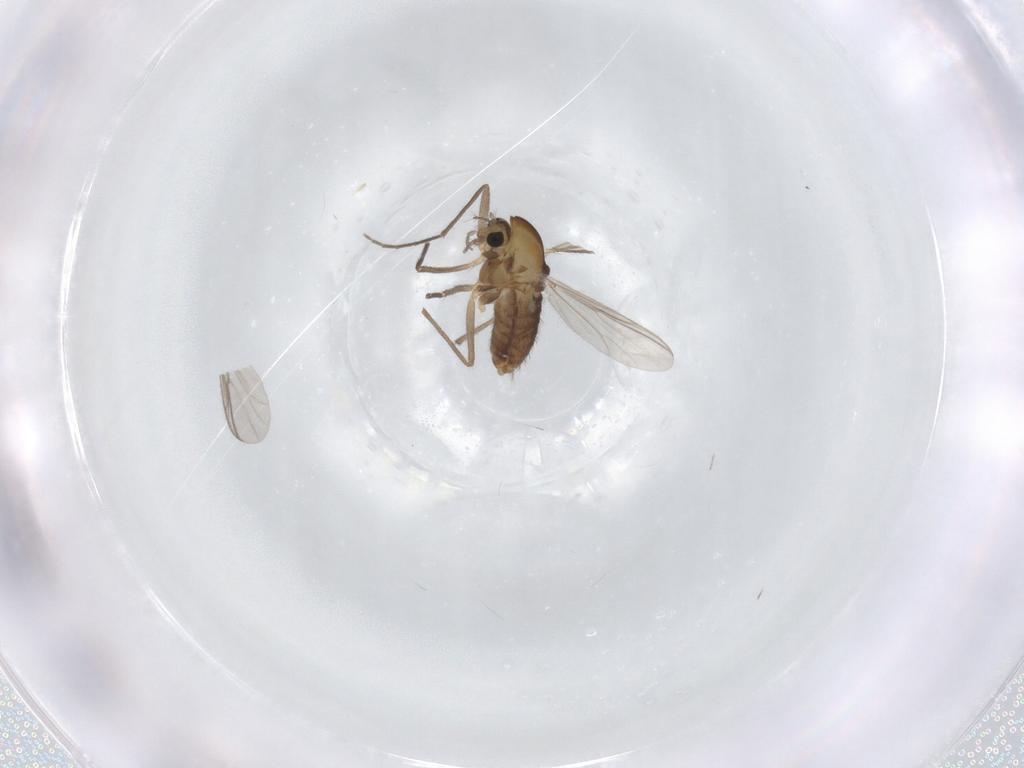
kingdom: Animalia
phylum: Arthropoda
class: Insecta
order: Diptera
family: Chironomidae
